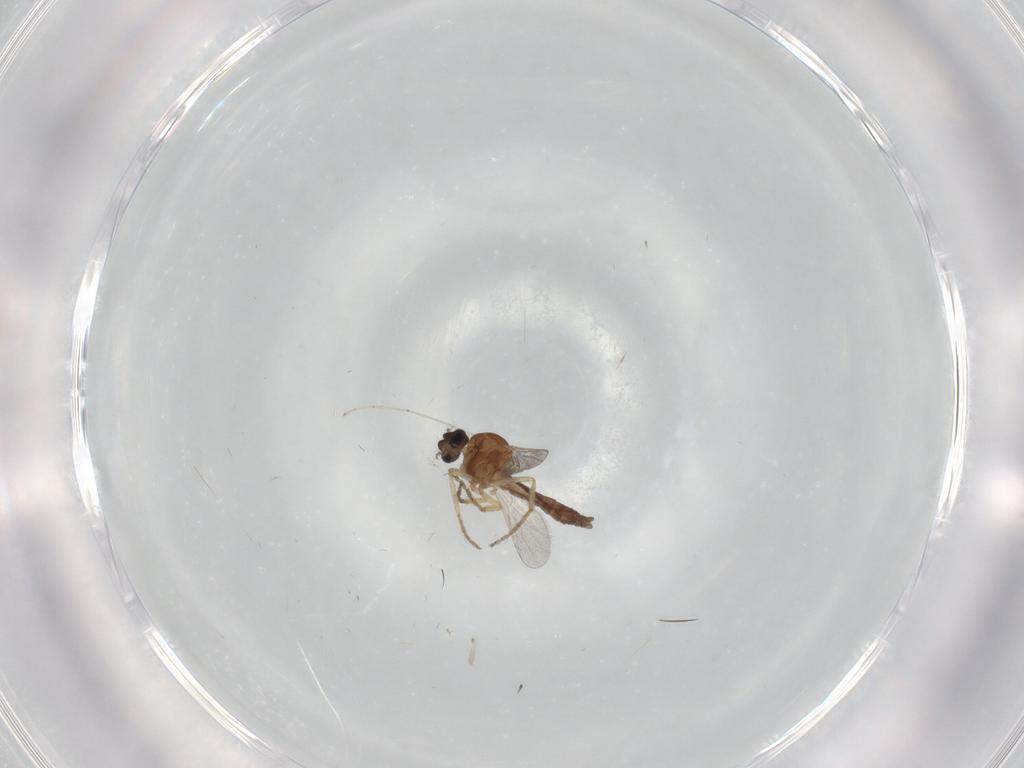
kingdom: Animalia
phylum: Arthropoda
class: Insecta
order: Diptera
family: Ceratopogonidae
